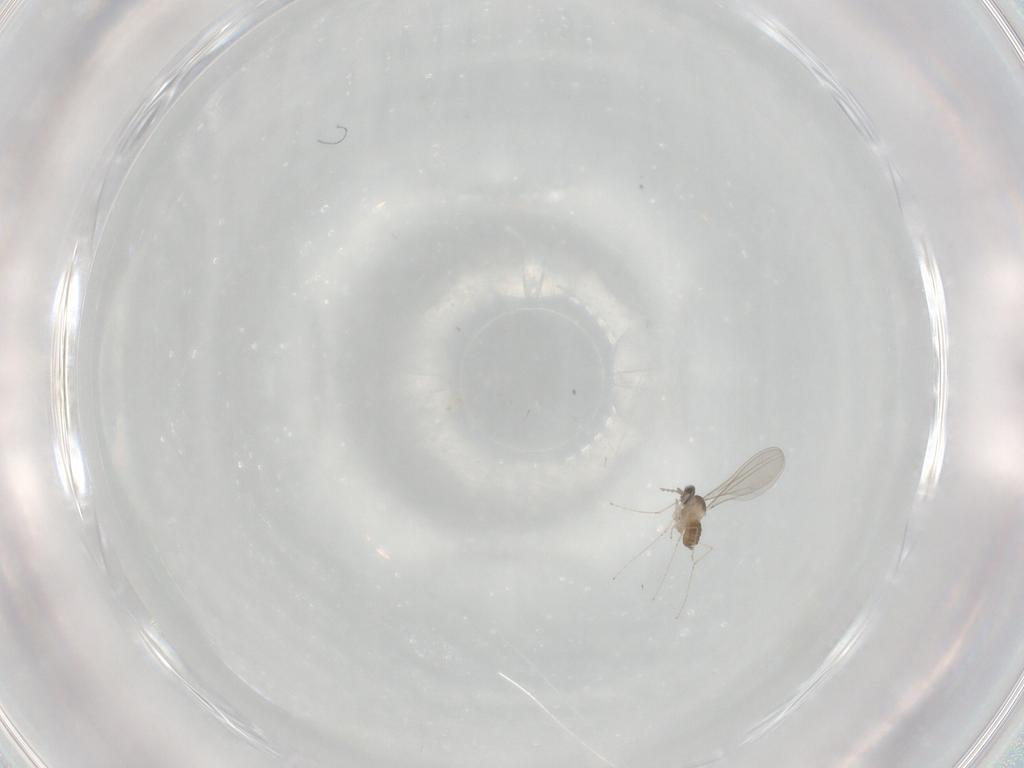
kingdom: Animalia
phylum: Arthropoda
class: Insecta
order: Diptera
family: Cecidomyiidae
